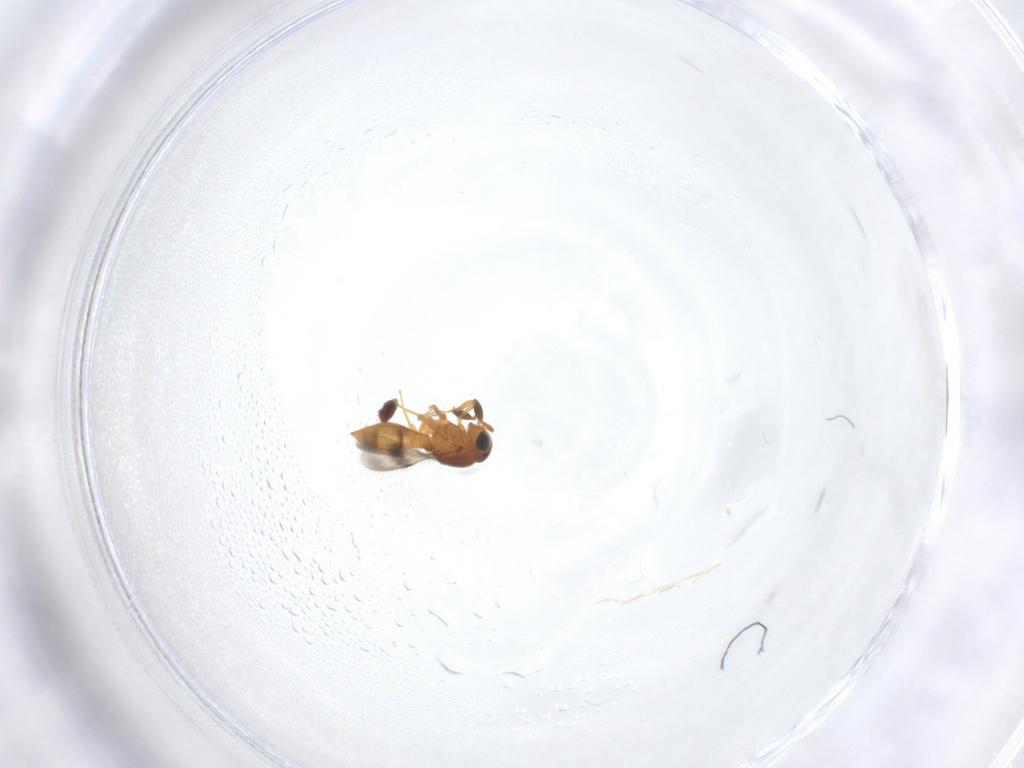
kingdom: Animalia
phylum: Arthropoda
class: Insecta
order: Hymenoptera
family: Scelionidae
